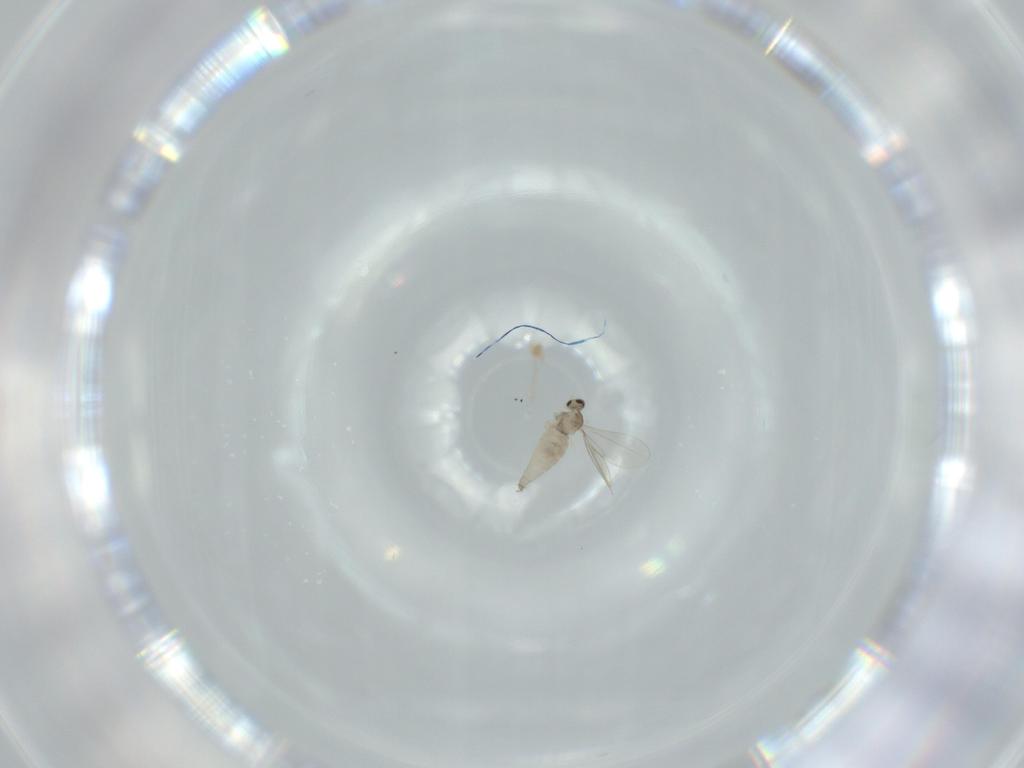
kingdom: Animalia
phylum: Arthropoda
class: Insecta
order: Diptera
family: Cecidomyiidae
